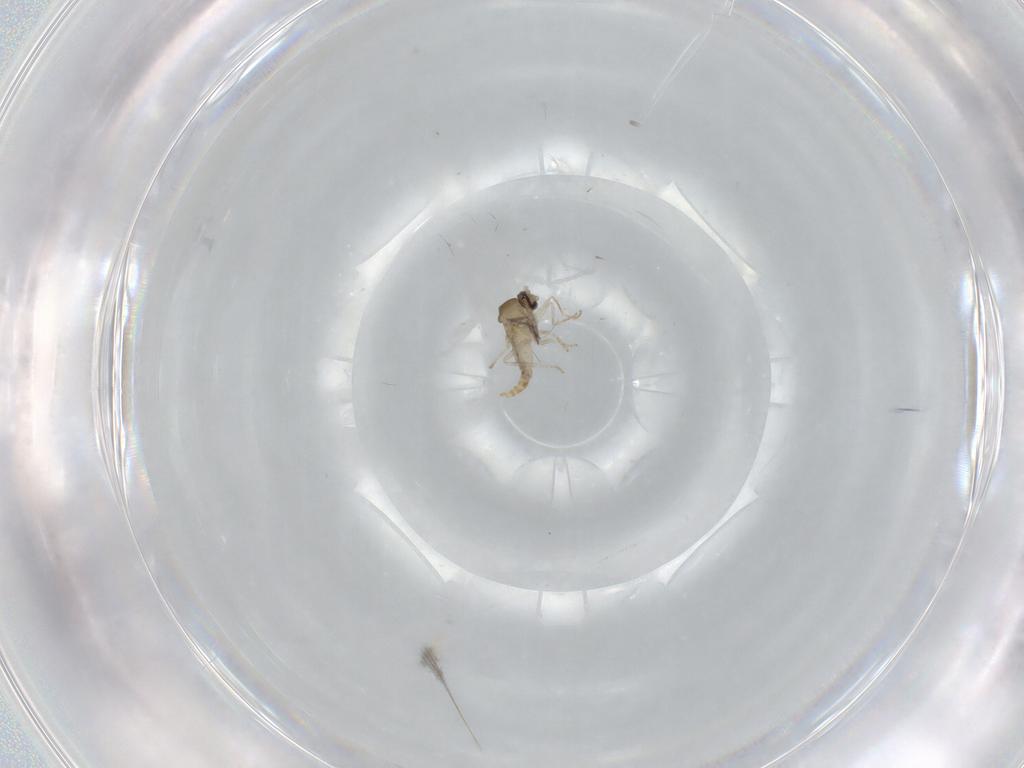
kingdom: Animalia
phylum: Arthropoda
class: Insecta
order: Diptera
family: Cecidomyiidae
